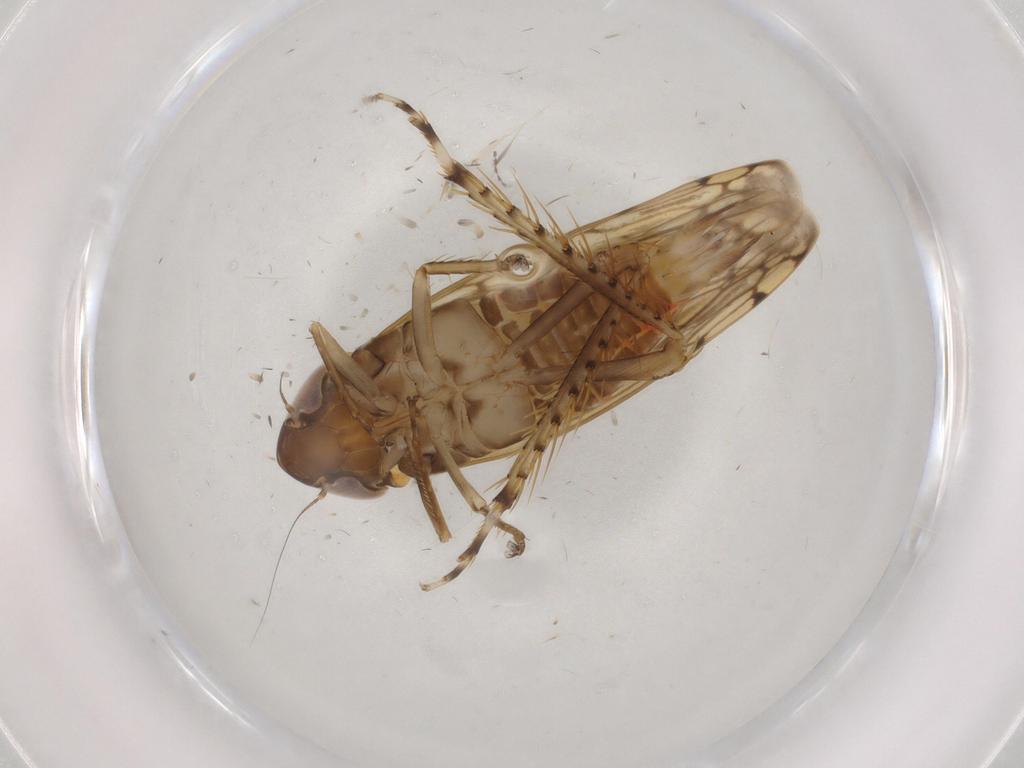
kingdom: Animalia
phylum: Arthropoda
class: Insecta
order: Hemiptera
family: Cicadellidae
